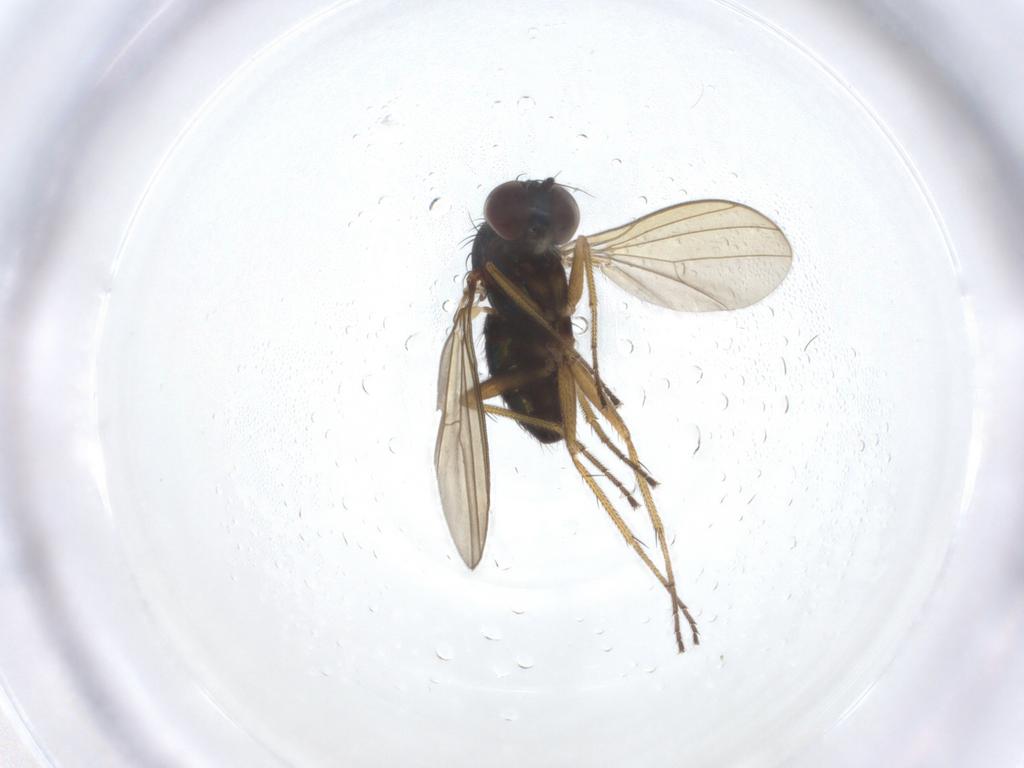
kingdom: Animalia
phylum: Arthropoda
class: Insecta
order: Diptera
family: Dolichopodidae
